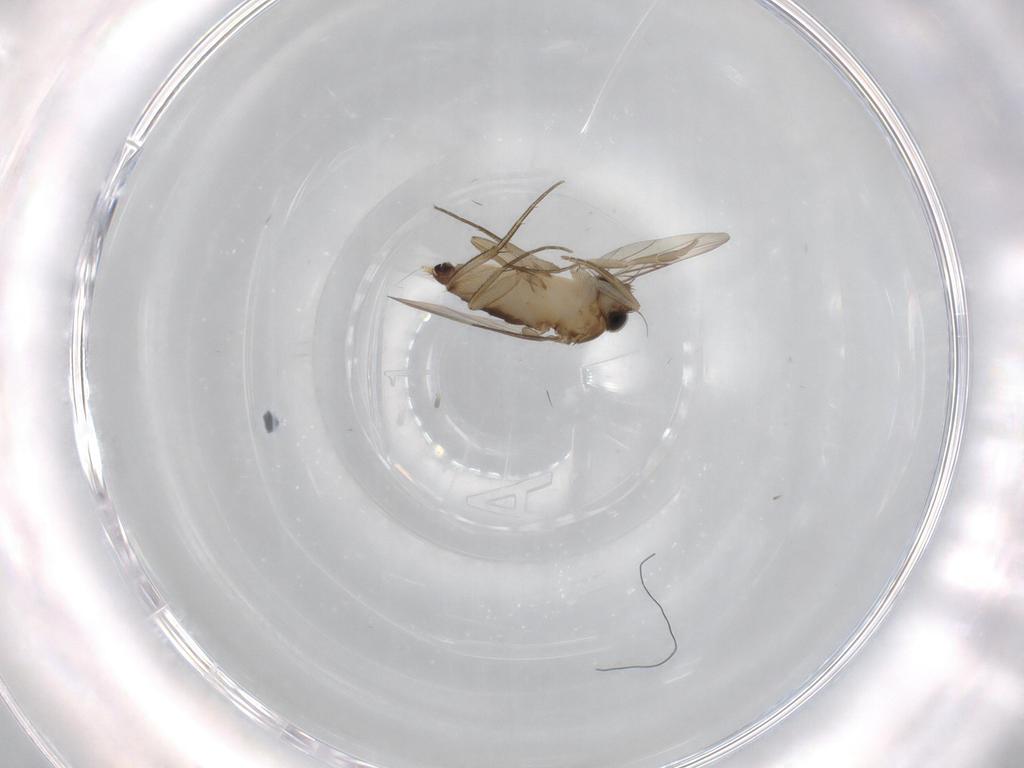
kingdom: Animalia
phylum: Arthropoda
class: Insecta
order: Diptera
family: Phoridae
